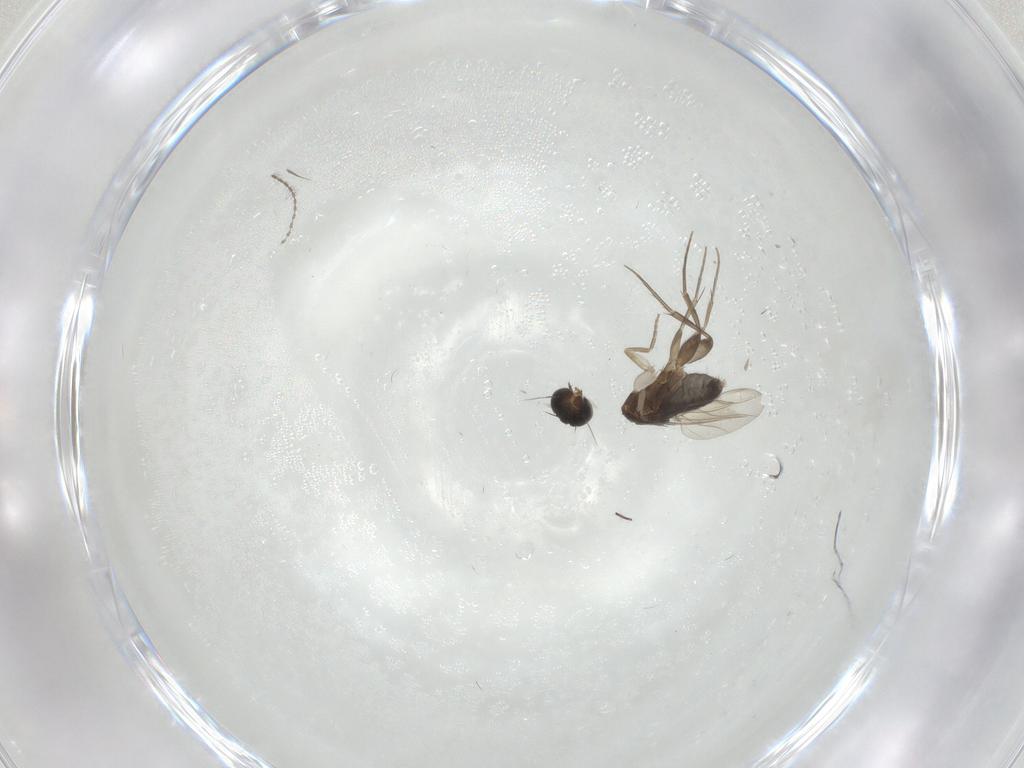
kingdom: Animalia
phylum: Arthropoda
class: Insecta
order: Diptera
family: Phoridae
